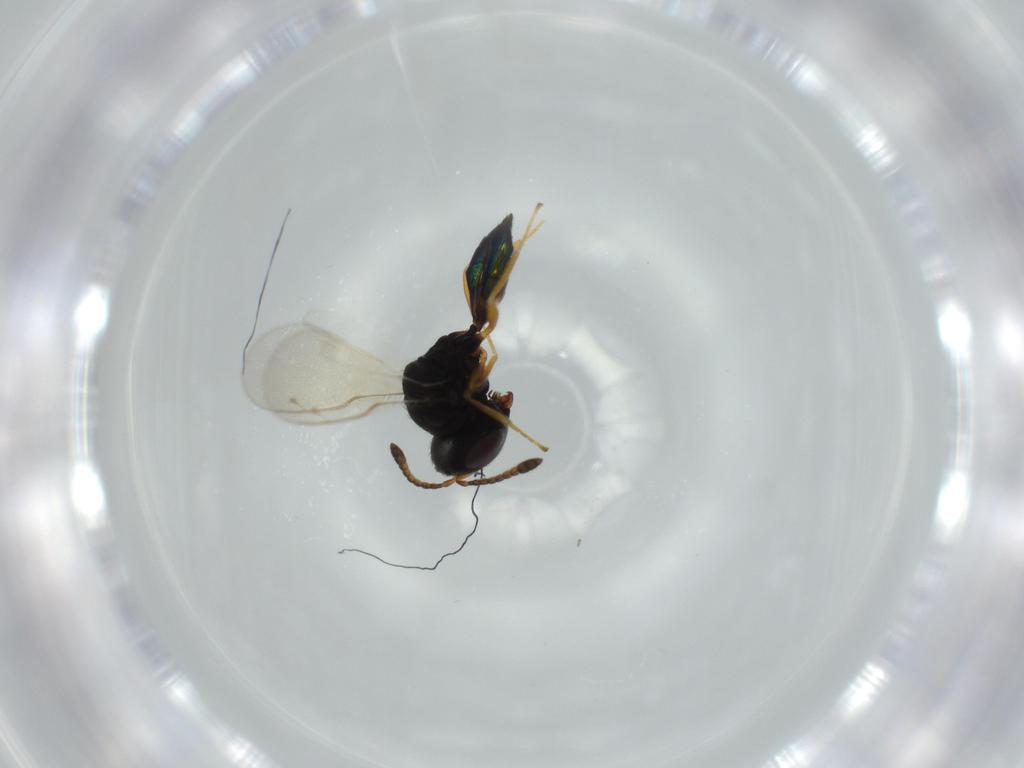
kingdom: Animalia
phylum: Arthropoda
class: Insecta
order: Hymenoptera
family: Pteromalidae
